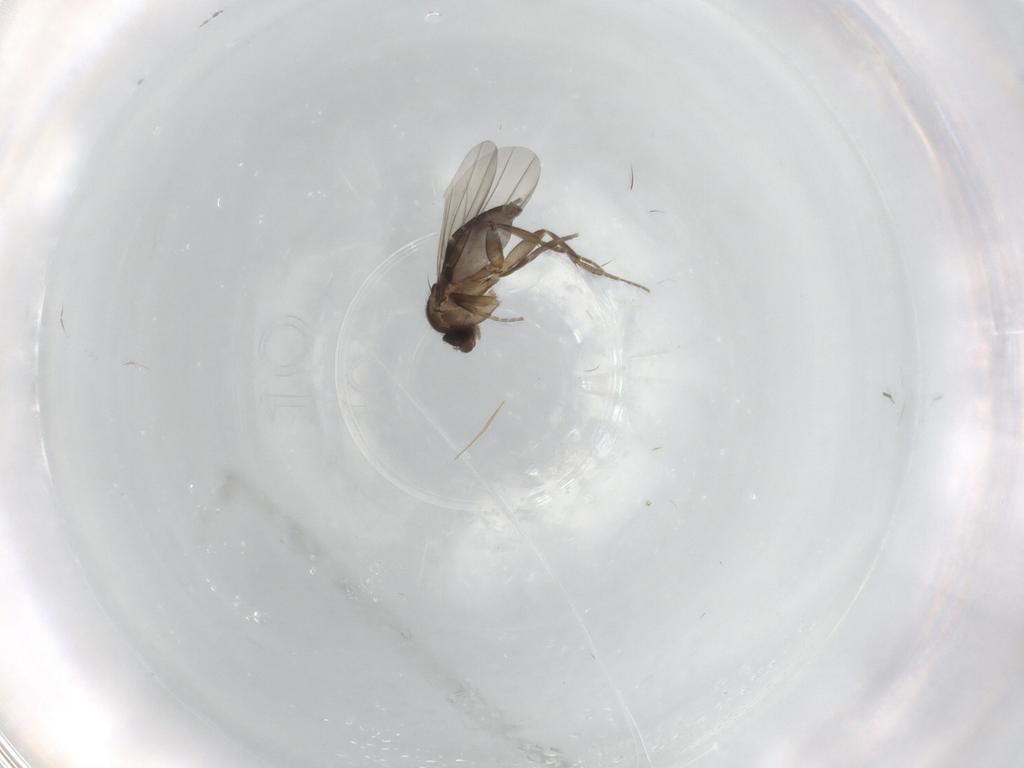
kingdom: Animalia
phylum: Arthropoda
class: Insecta
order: Diptera
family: Phoridae
